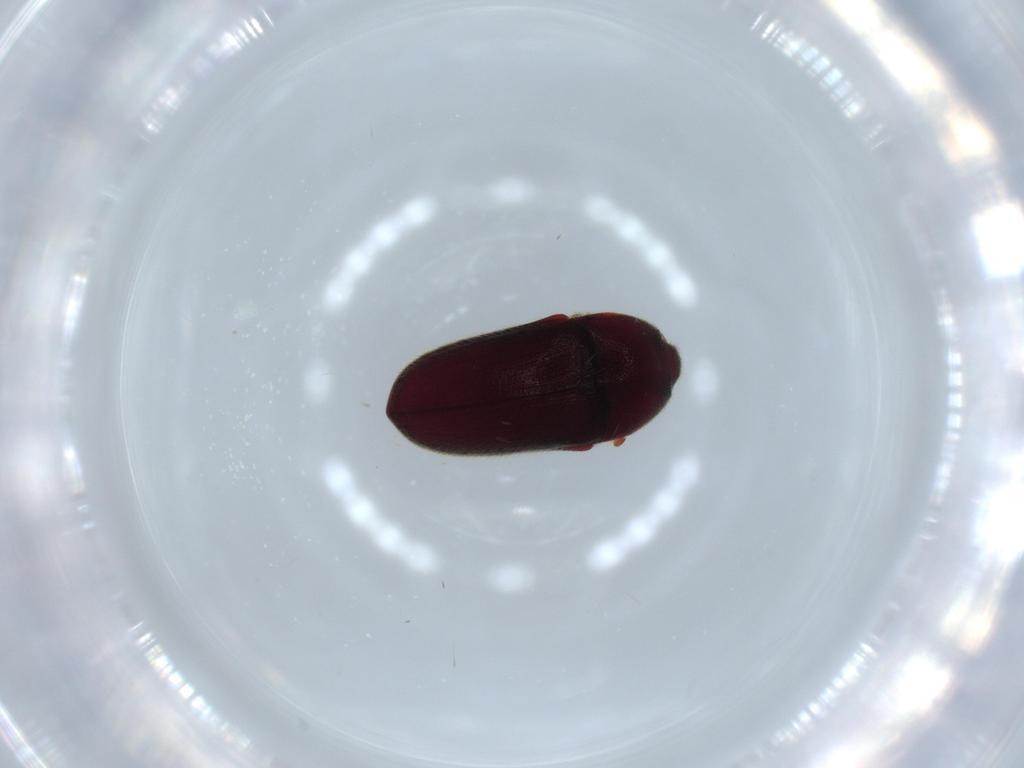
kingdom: Animalia
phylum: Arthropoda
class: Insecta
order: Coleoptera
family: Throscidae
